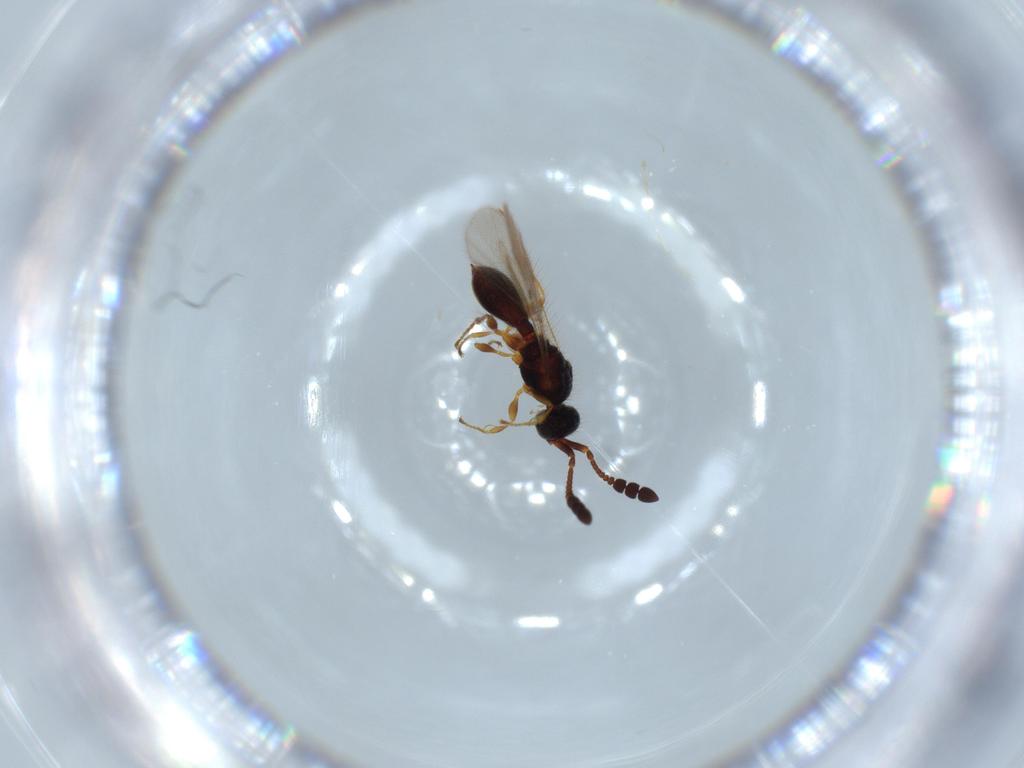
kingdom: Animalia
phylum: Arthropoda
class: Insecta
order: Hymenoptera
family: Diapriidae
